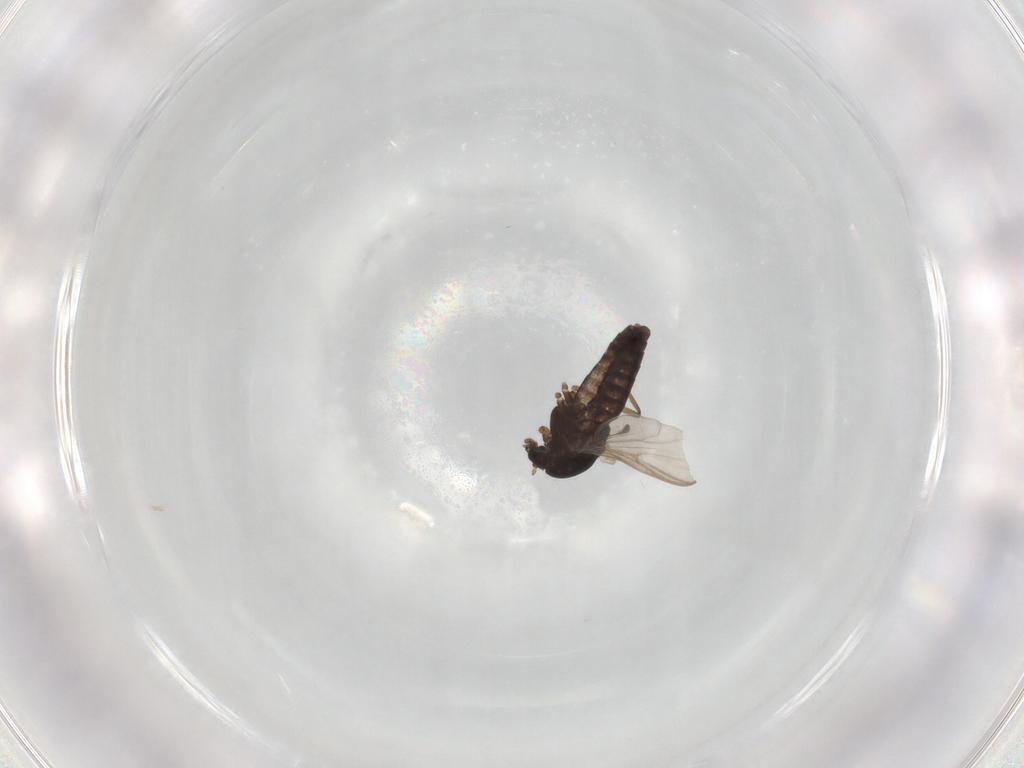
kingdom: Animalia
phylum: Arthropoda
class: Insecta
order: Diptera
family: Chironomidae
